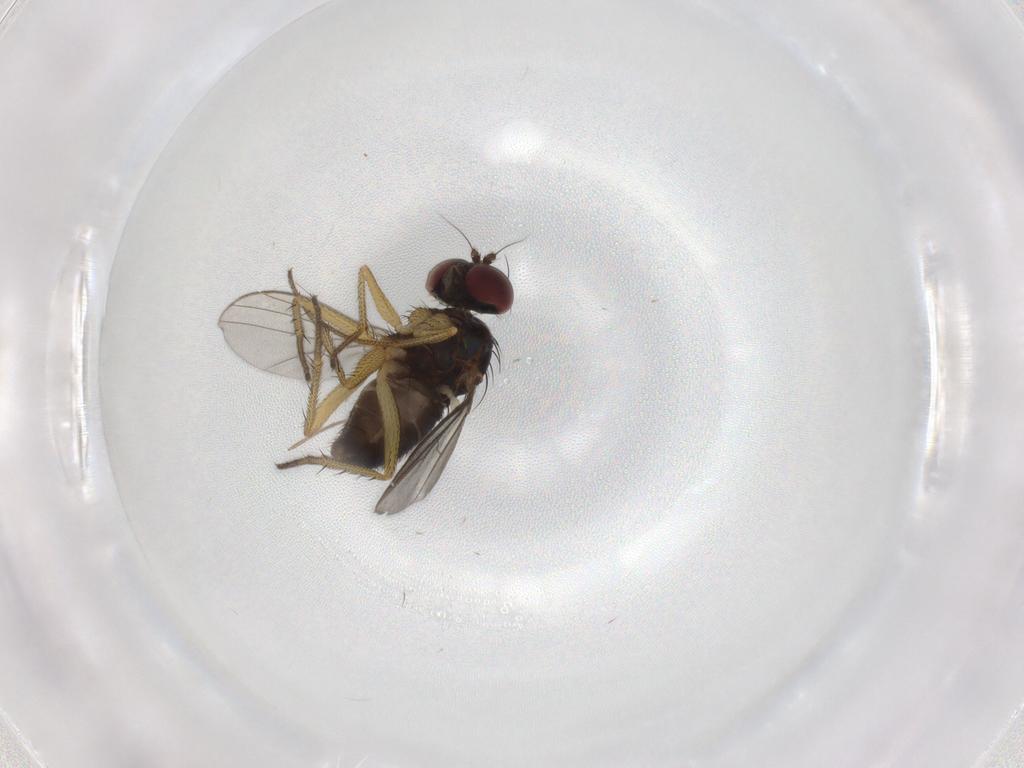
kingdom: Animalia
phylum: Arthropoda
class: Insecta
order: Diptera
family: Dolichopodidae
